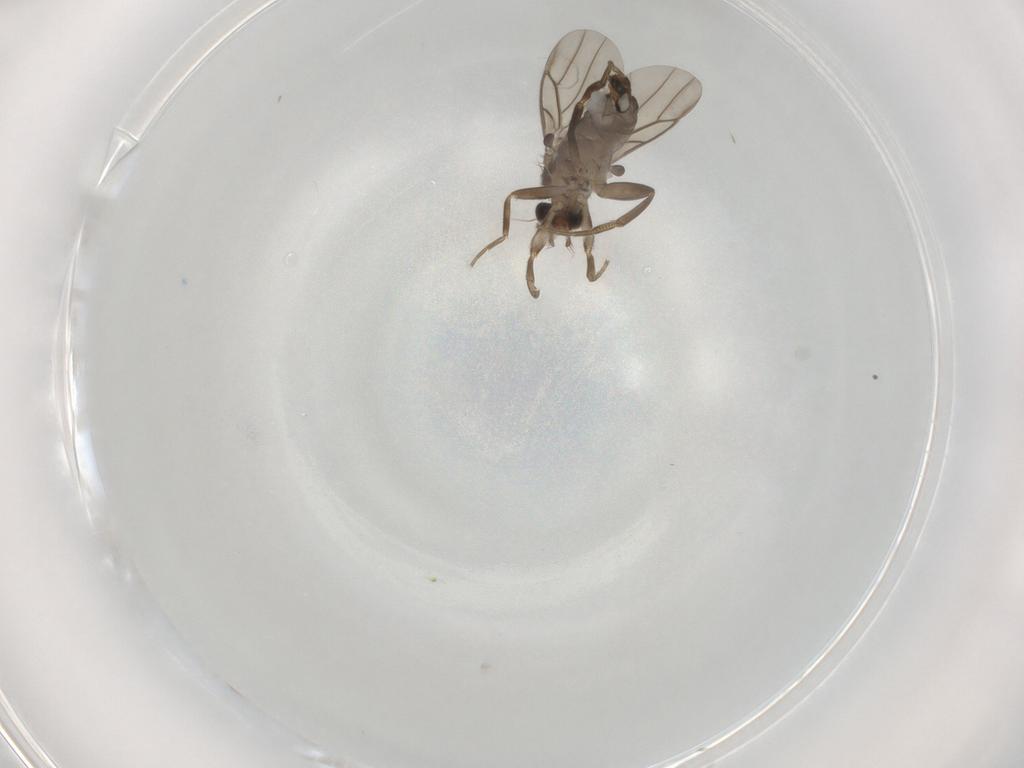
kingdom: Animalia
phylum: Arthropoda
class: Insecta
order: Diptera
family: Phoridae
